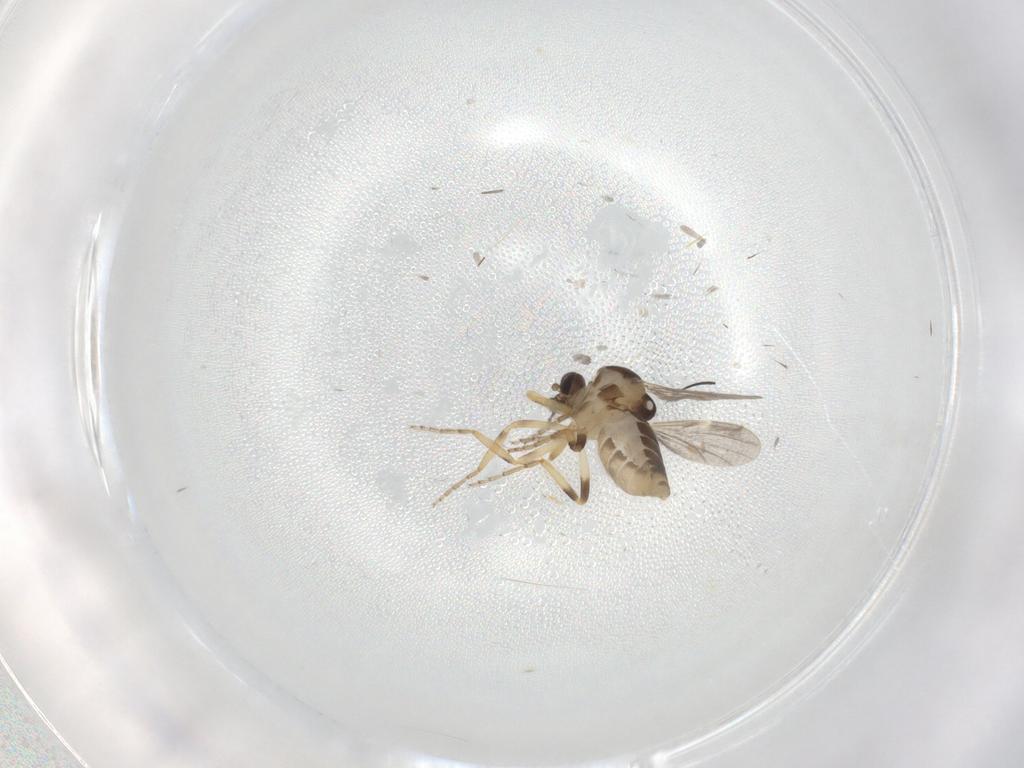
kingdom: Animalia
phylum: Arthropoda
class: Insecta
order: Diptera
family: Ceratopogonidae
